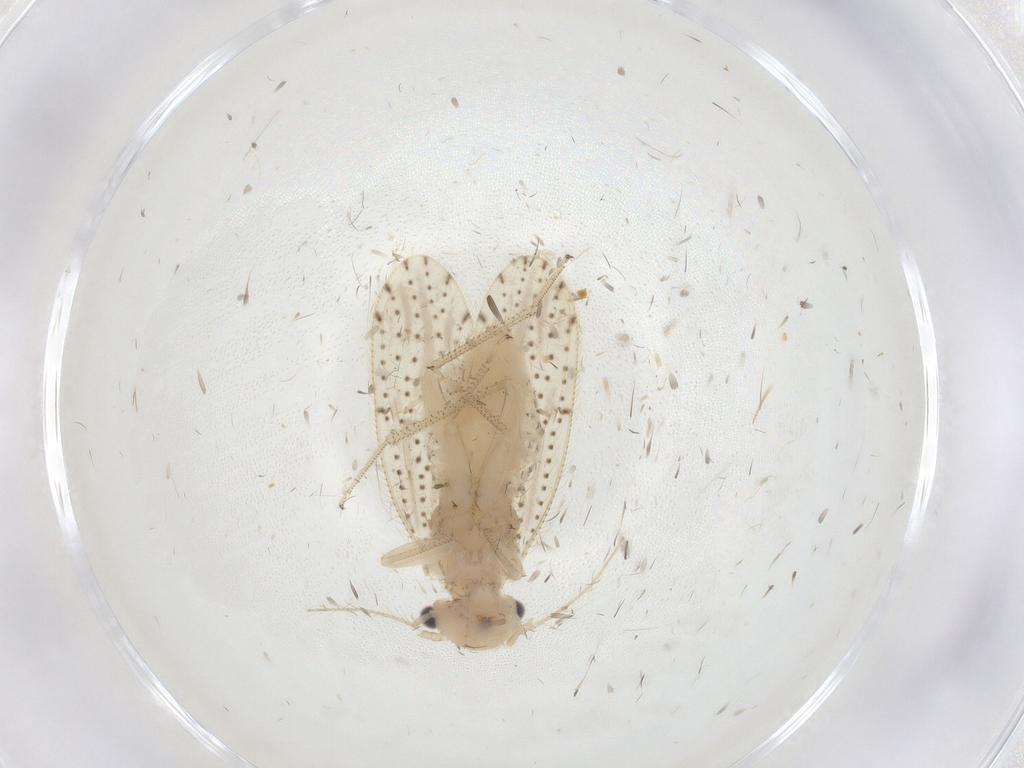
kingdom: Animalia
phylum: Arthropoda
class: Insecta
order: Psocodea
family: Myopsocidae
